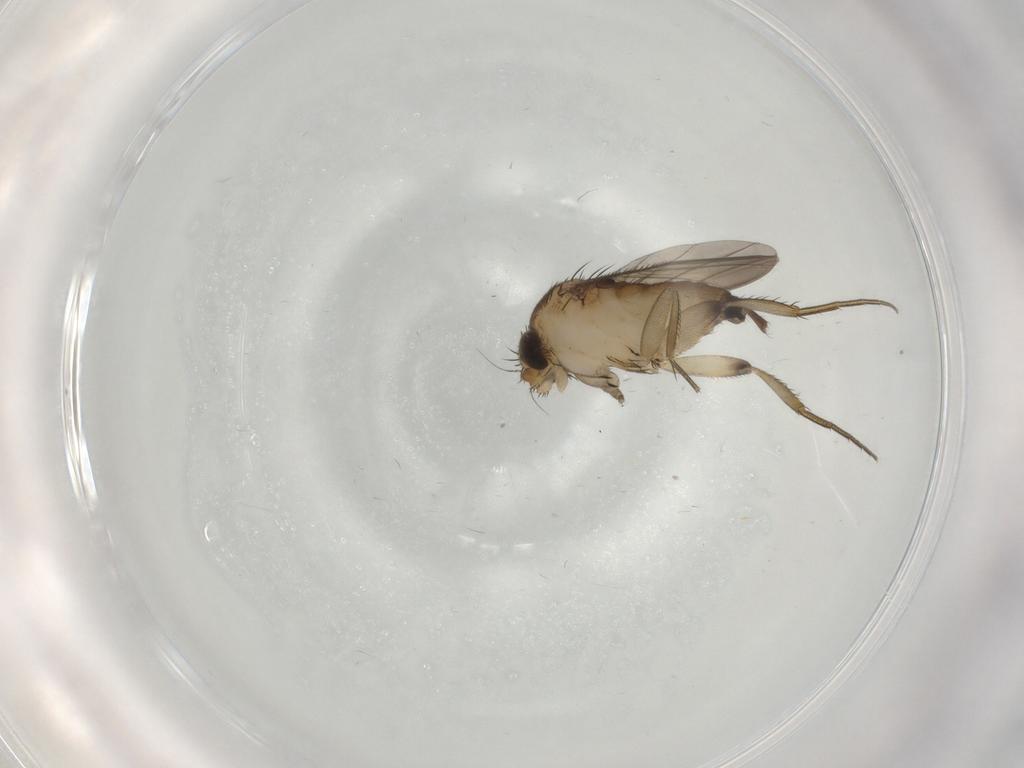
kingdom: Animalia
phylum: Arthropoda
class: Insecta
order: Diptera
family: Phoridae
